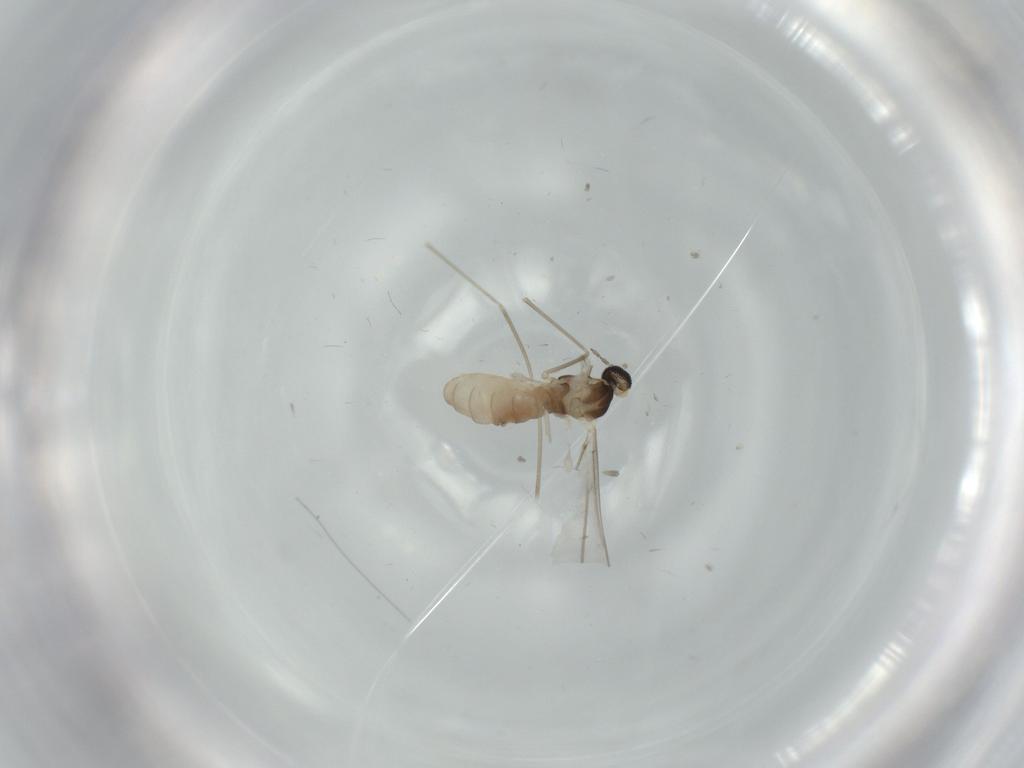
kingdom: Animalia
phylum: Arthropoda
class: Insecta
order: Diptera
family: Cecidomyiidae
